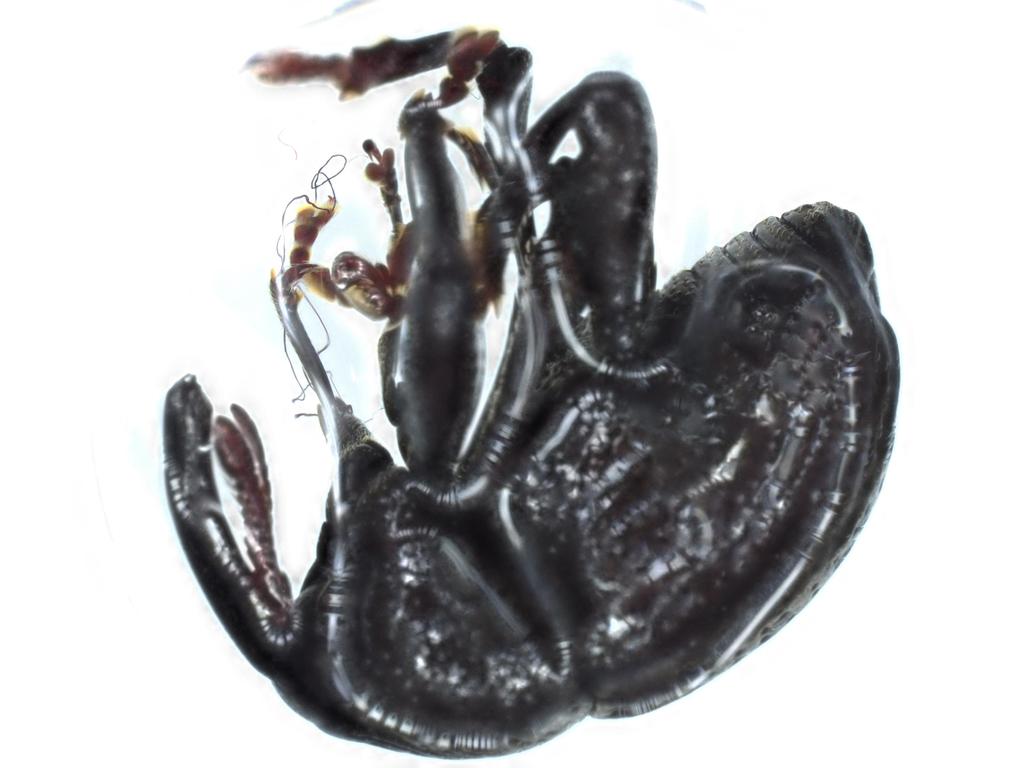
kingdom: Animalia
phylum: Arthropoda
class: Insecta
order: Coleoptera
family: Curculionidae
